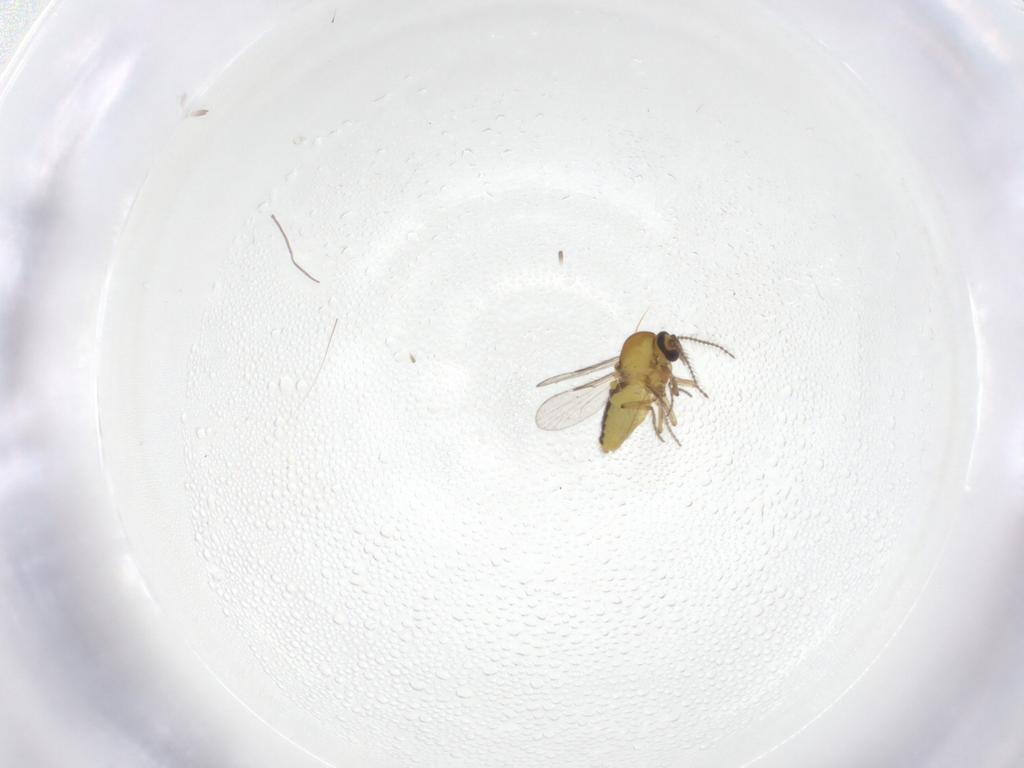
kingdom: Animalia
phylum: Arthropoda
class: Insecta
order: Diptera
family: Ceratopogonidae
